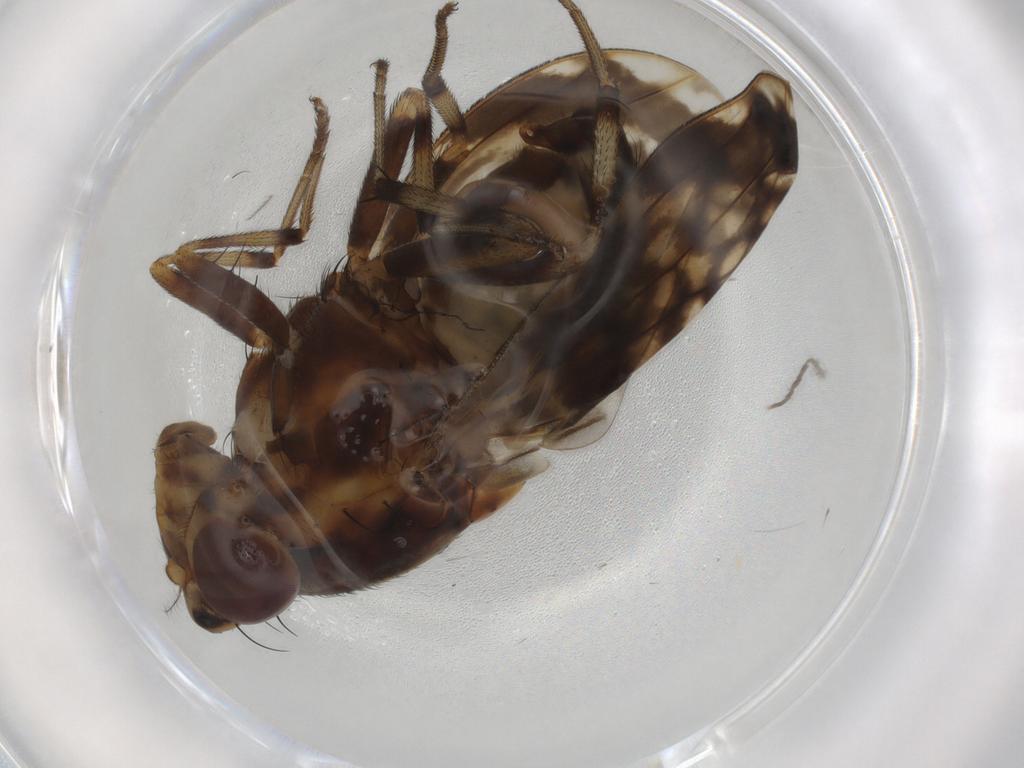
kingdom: Animalia
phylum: Arthropoda
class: Insecta
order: Diptera
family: Psychodidae
